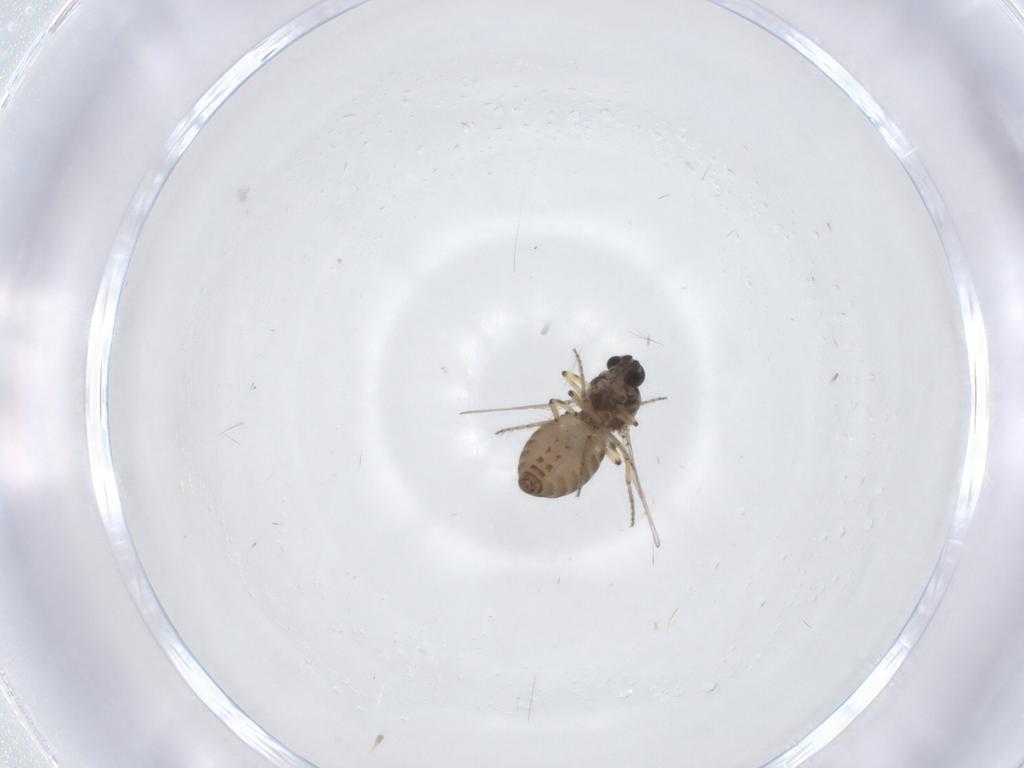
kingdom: Animalia
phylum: Arthropoda
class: Insecta
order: Diptera
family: Ceratopogonidae
